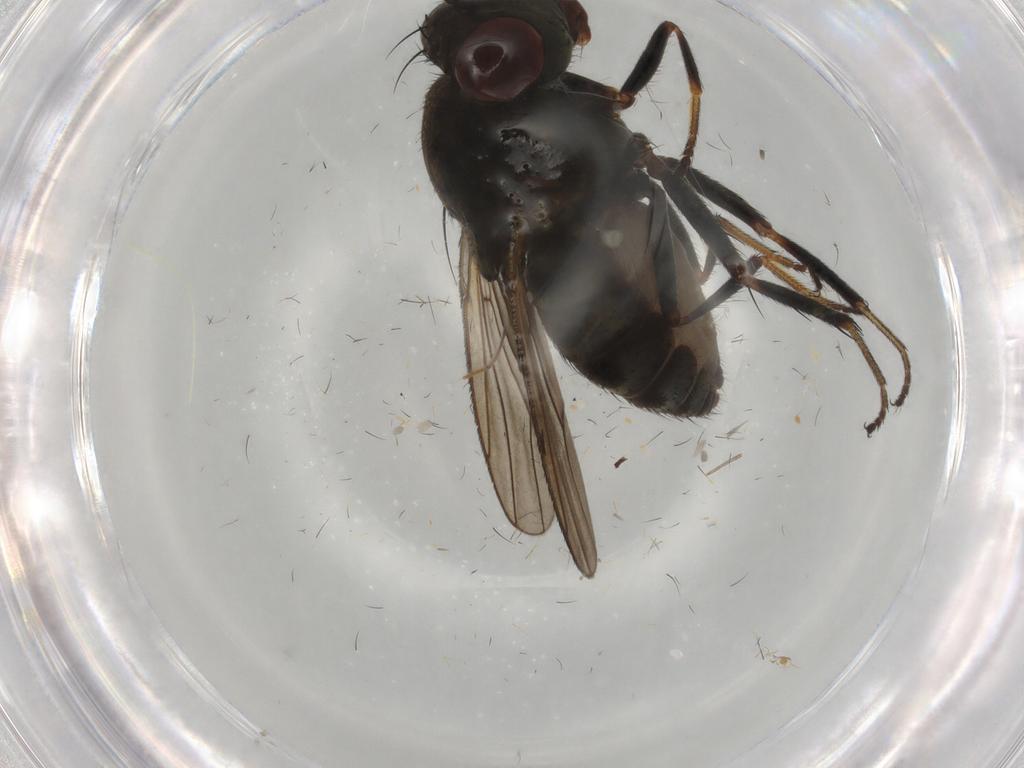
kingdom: Animalia
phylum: Arthropoda
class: Insecta
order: Diptera
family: Ephydridae
